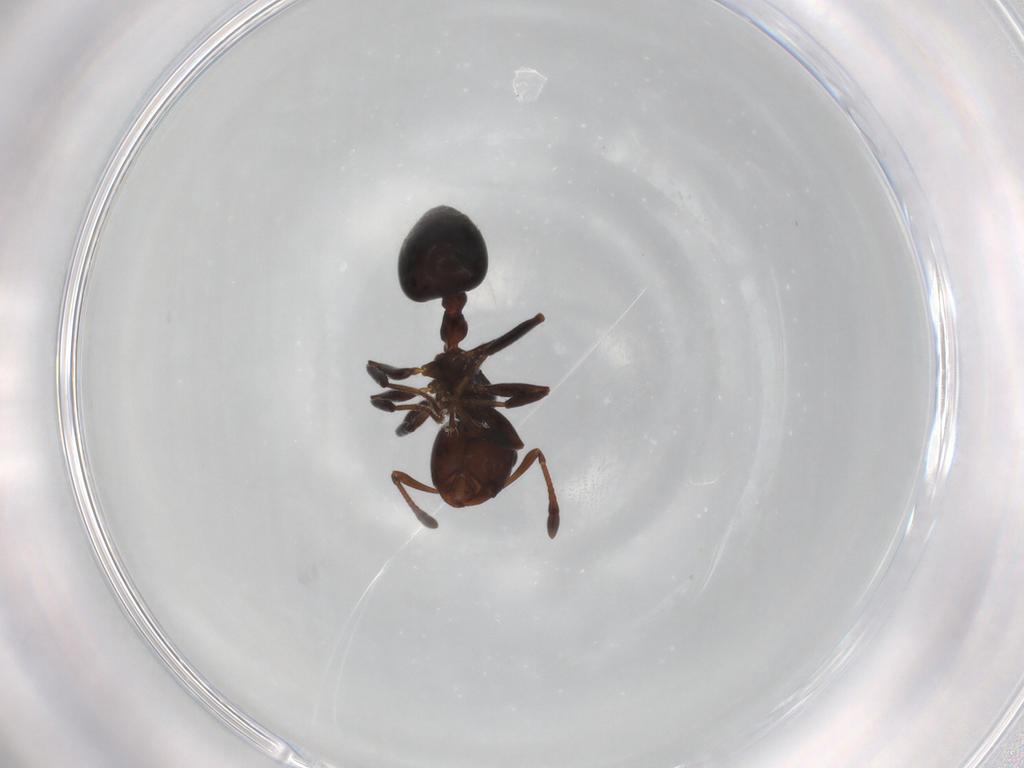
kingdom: Animalia
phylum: Arthropoda
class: Insecta
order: Hymenoptera
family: Formicidae
